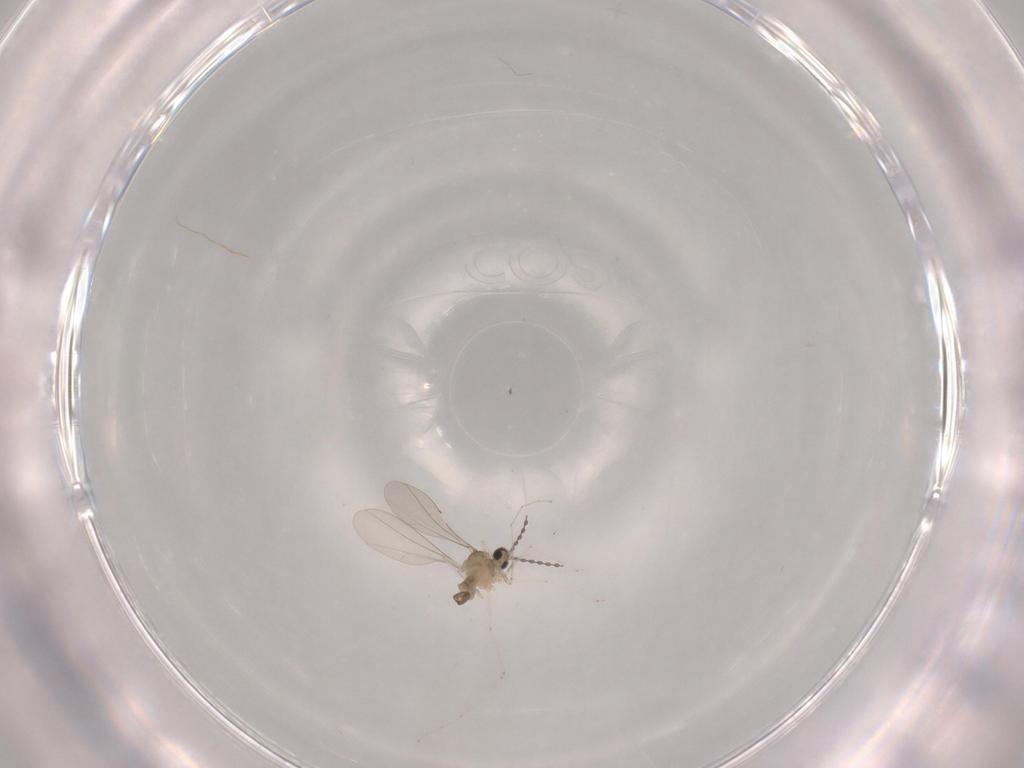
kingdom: Animalia
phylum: Arthropoda
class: Insecta
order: Diptera
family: Cecidomyiidae
